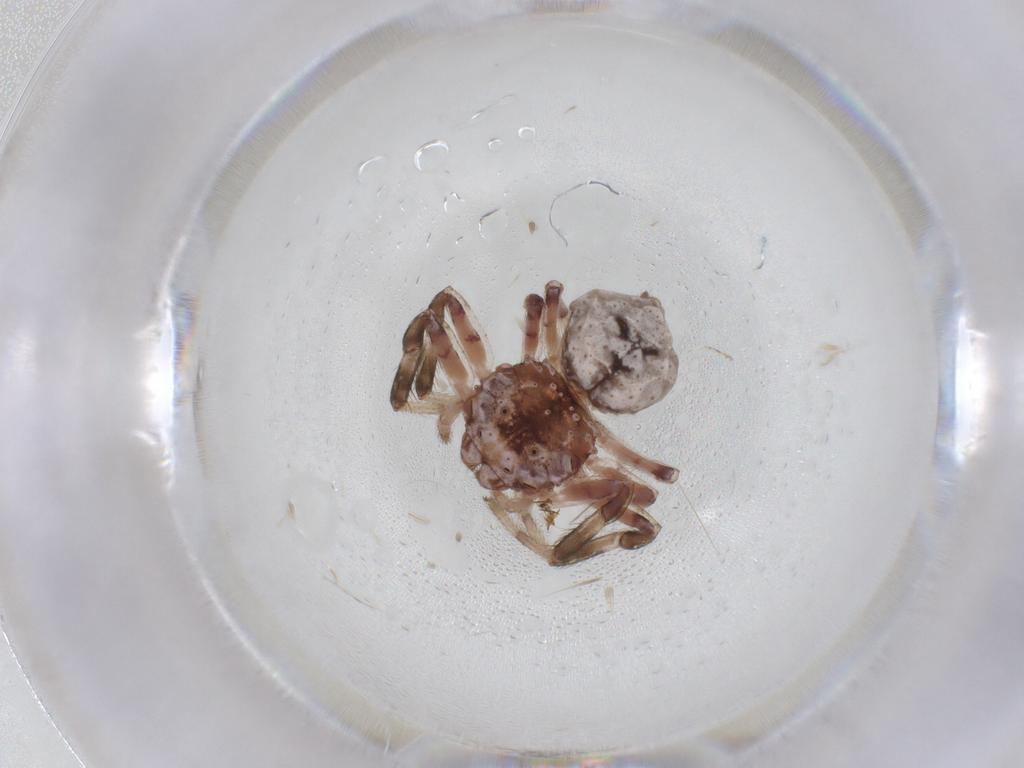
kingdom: Animalia
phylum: Arthropoda
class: Arachnida
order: Araneae
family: Lycosidae
